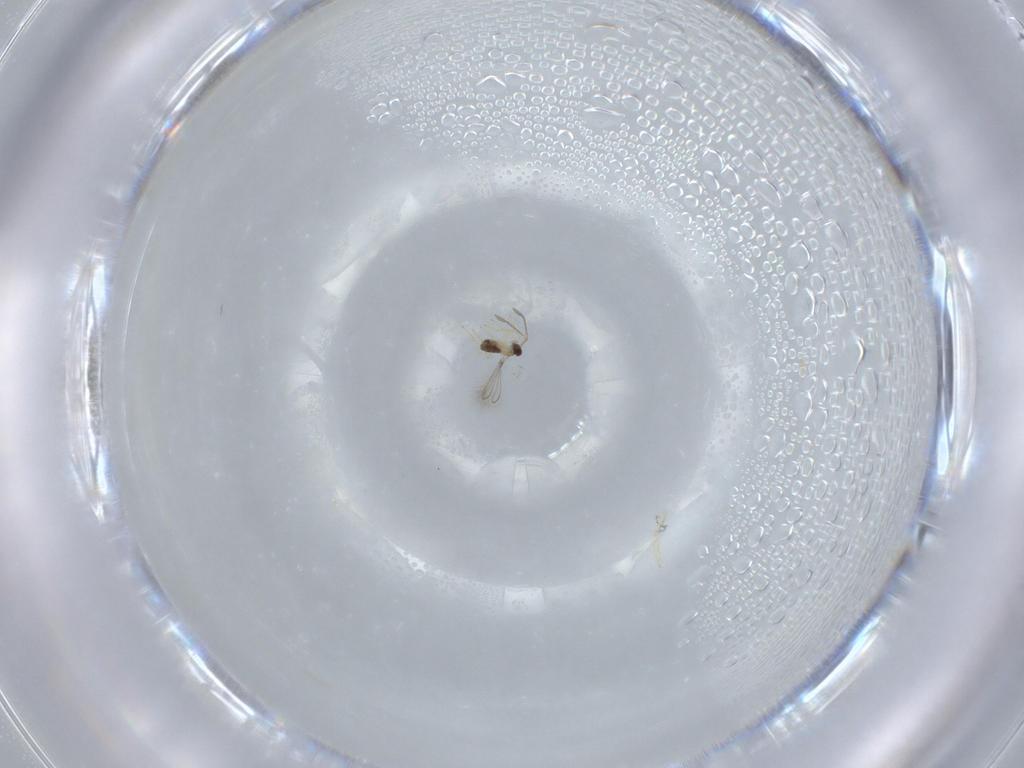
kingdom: Animalia
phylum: Arthropoda
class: Insecta
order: Hymenoptera
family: Mymaridae
